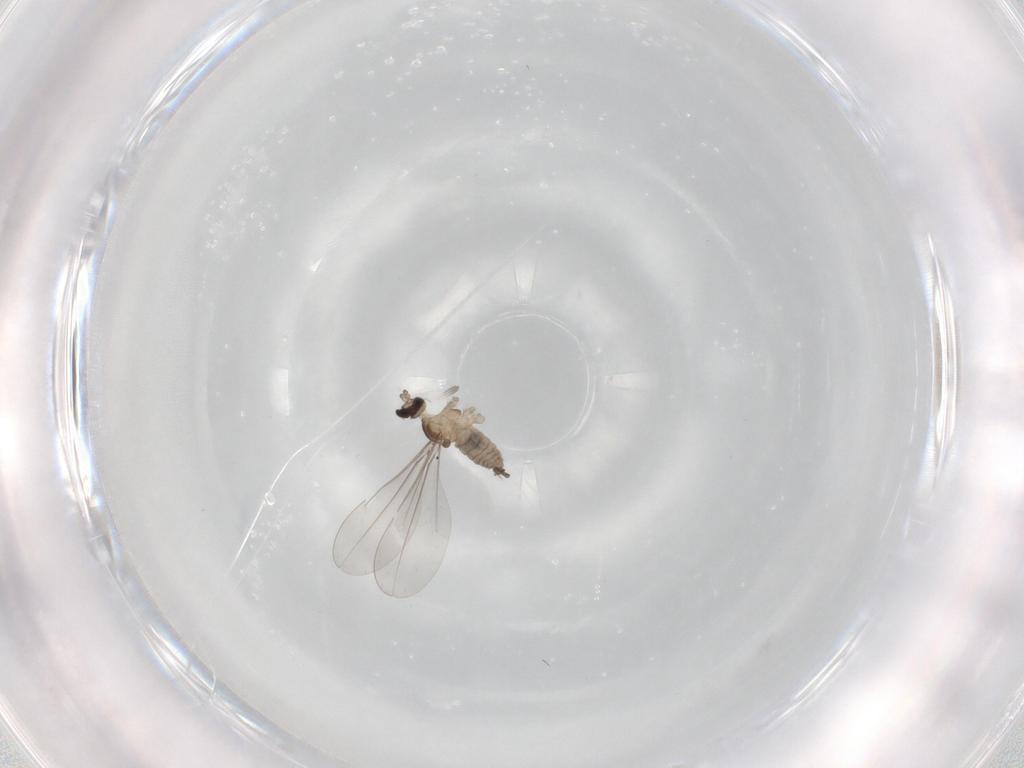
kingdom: Animalia
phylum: Arthropoda
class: Insecta
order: Diptera
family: Cecidomyiidae
